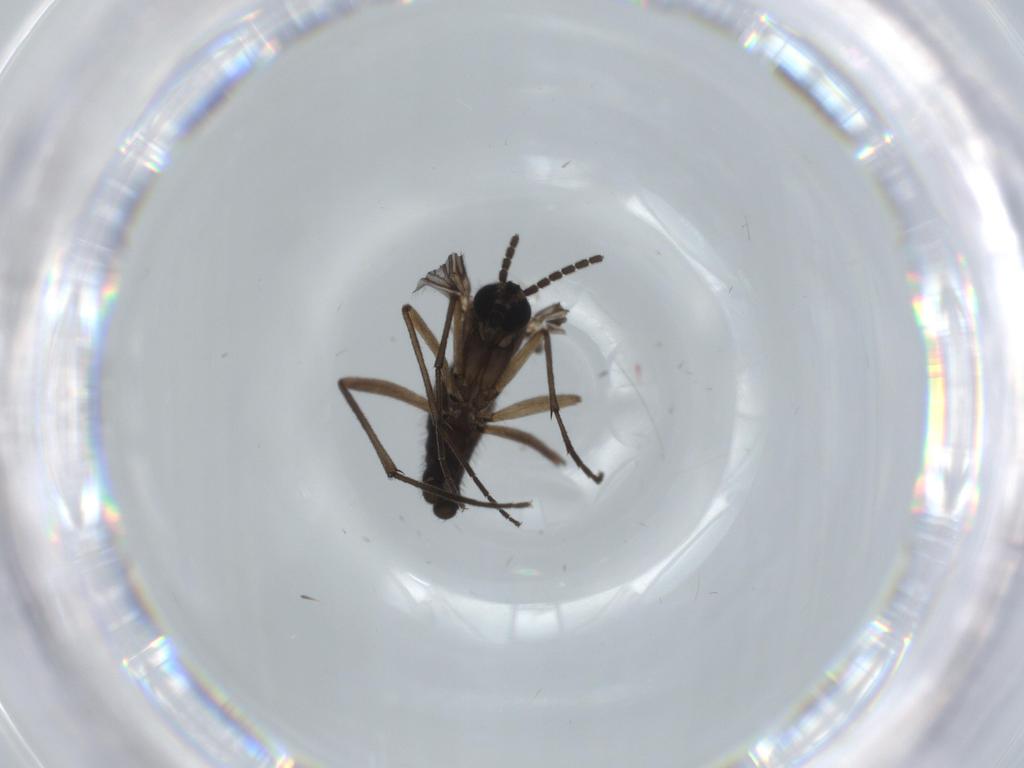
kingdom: Animalia
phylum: Arthropoda
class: Insecta
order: Diptera
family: Sciaridae
